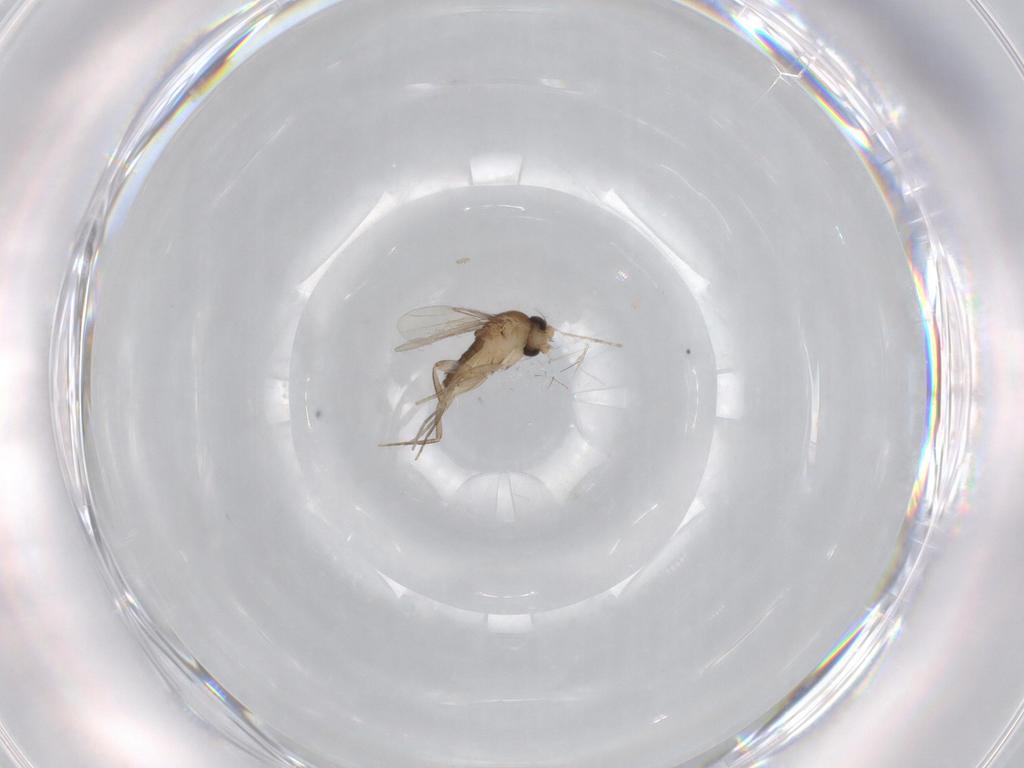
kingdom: Animalia
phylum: Arthropoda
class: Insecta
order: Diptera
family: Phoridae
